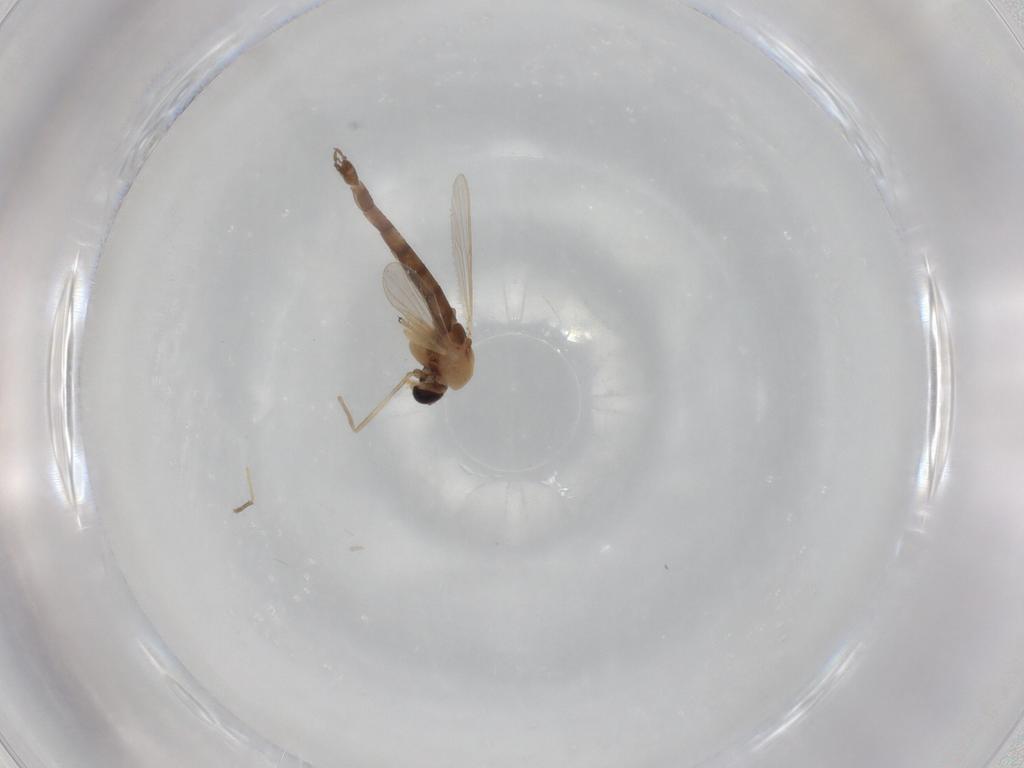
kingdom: Animalia
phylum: Arthropoda
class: Insecta
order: Diptera
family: Chironomidae
